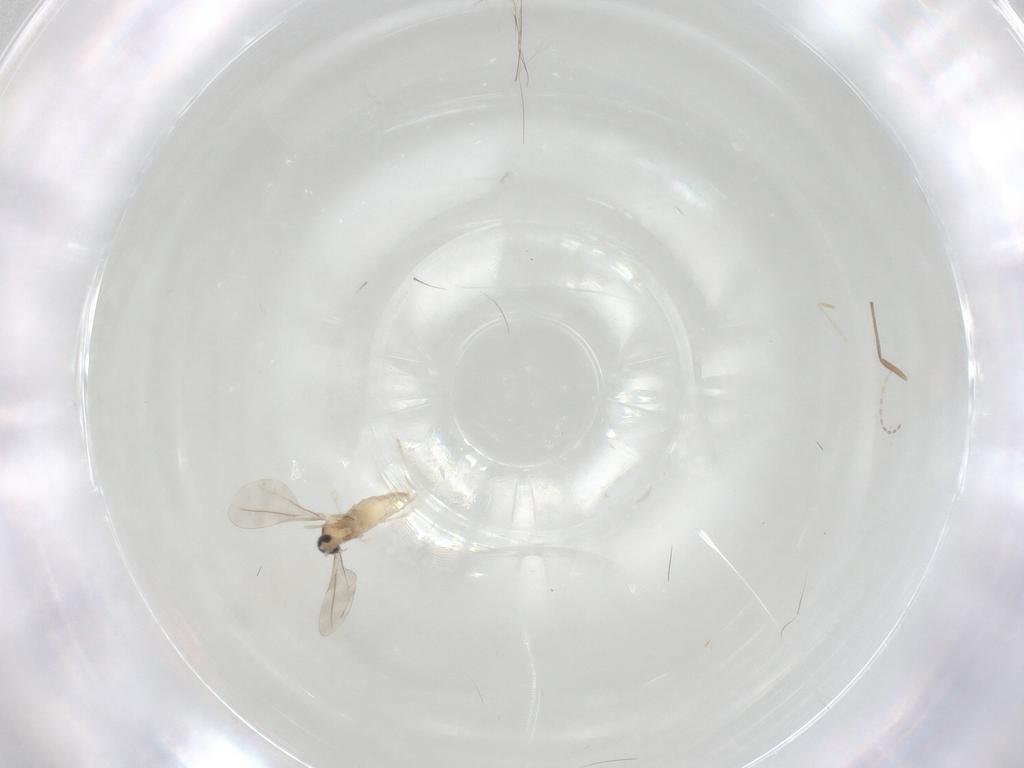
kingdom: Animalia
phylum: Arthropoda
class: Insecta
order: Diptera
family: Cecidomyiidae
